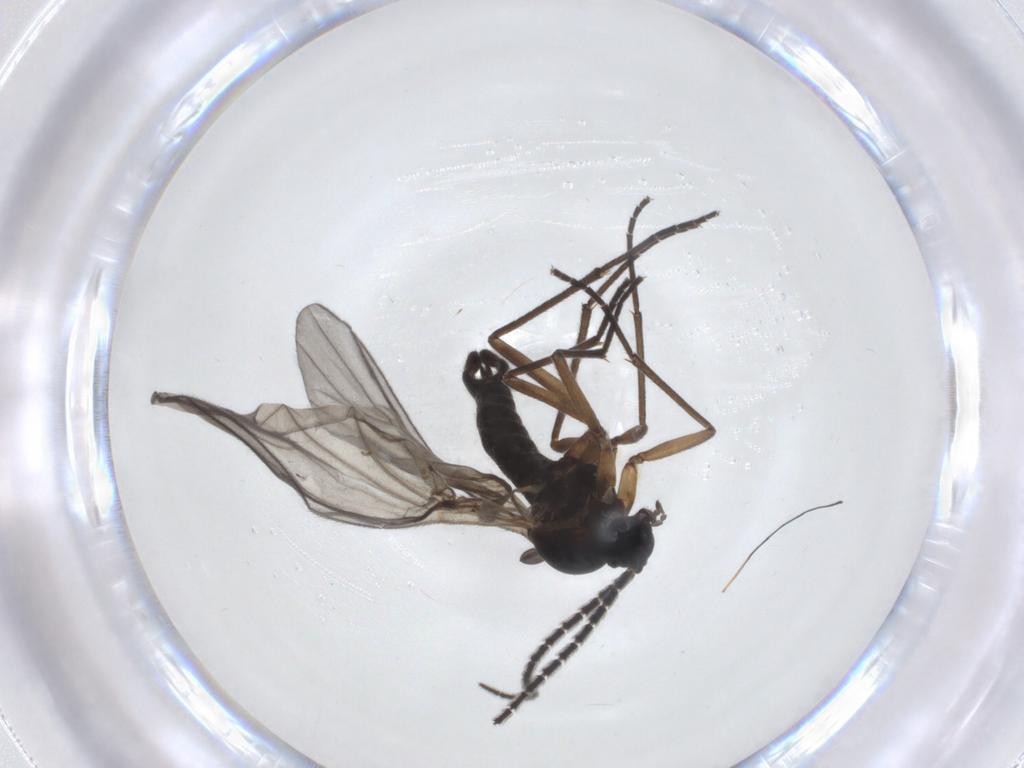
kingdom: Animalia
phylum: Arthropoda
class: Insecta
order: Diptera
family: Sciaridae
